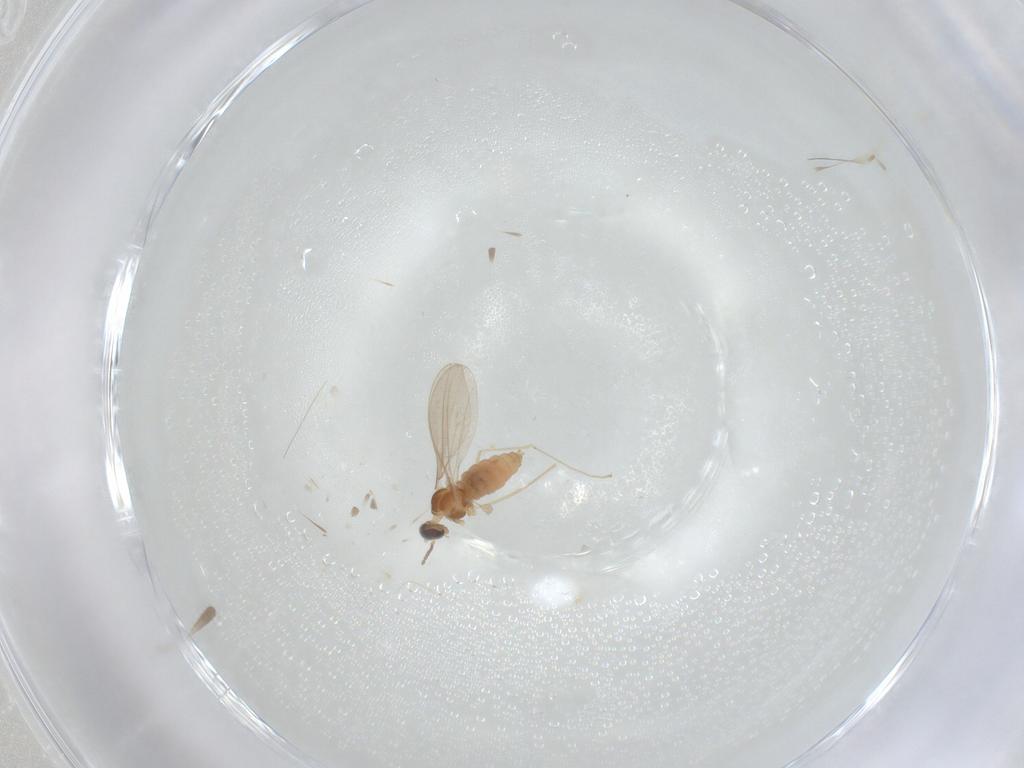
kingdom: Animalia
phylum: Arthropoda
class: Insecta
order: Diptera
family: Cecidomyiidae
